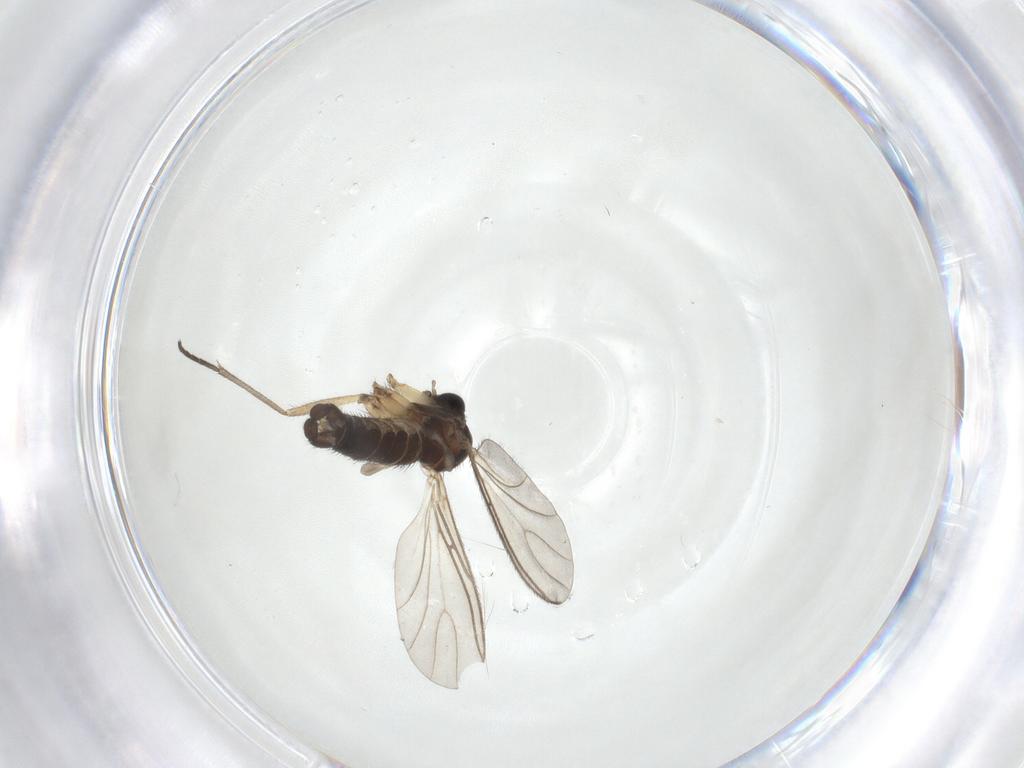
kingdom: Animalia
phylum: Arthropoda
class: Insecta
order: Diptera
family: Sciaridae
